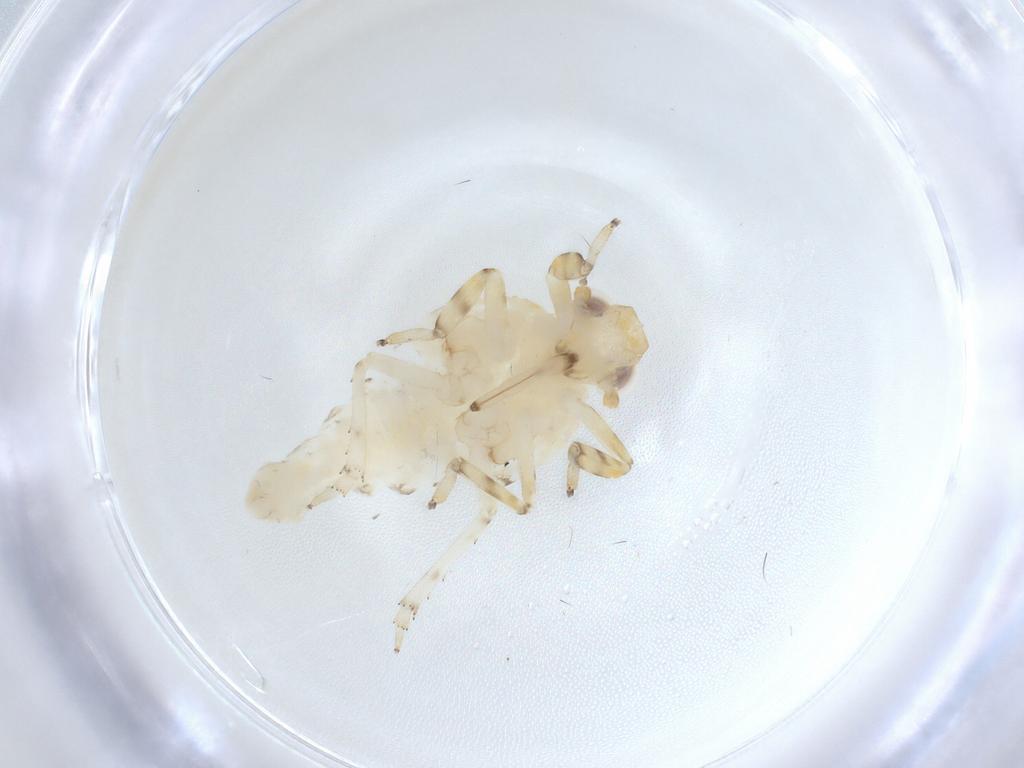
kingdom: Animalia
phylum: Arthropoda
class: Insecta
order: Hemiptera
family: Issidae
